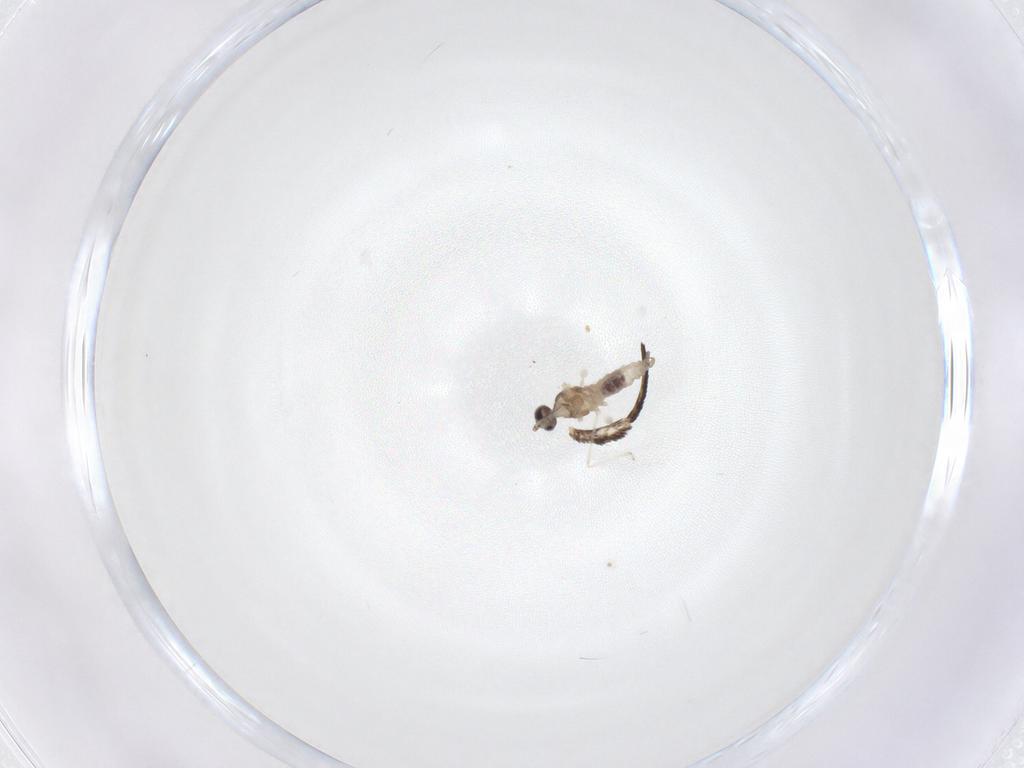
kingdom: Animalia
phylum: Arthropoda
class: Insecta
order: Diptera
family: Cecidomyiidae
